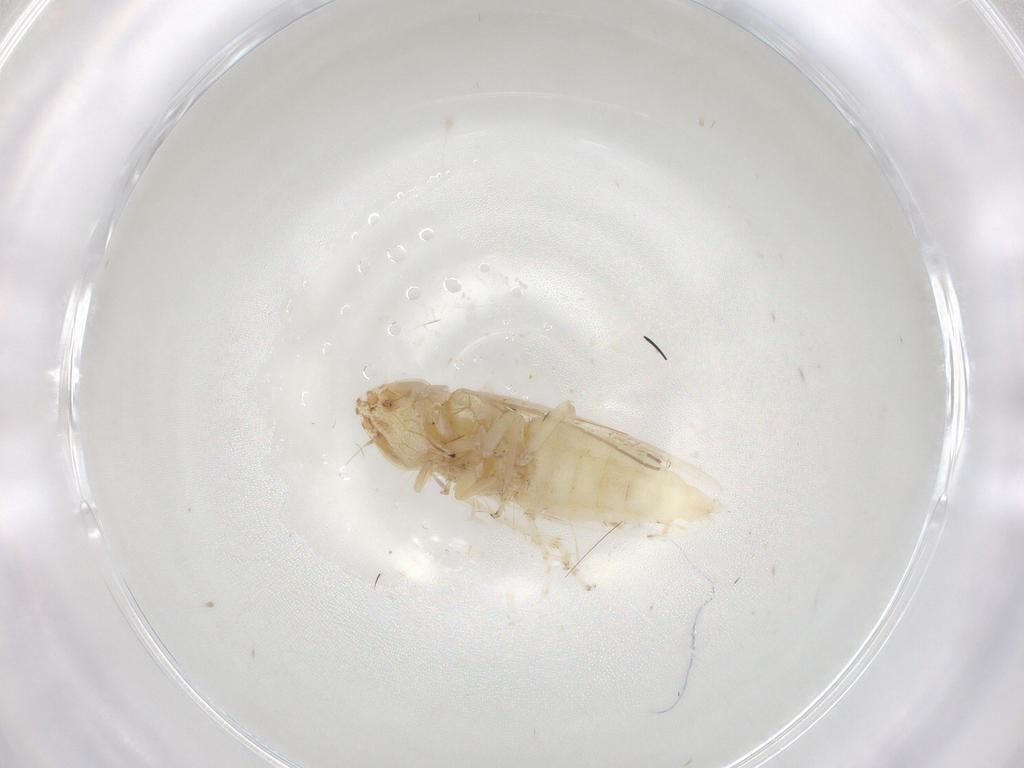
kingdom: Animalia
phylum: Arthropoda
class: Insecta
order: Hemiptera
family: Cicadellidae
